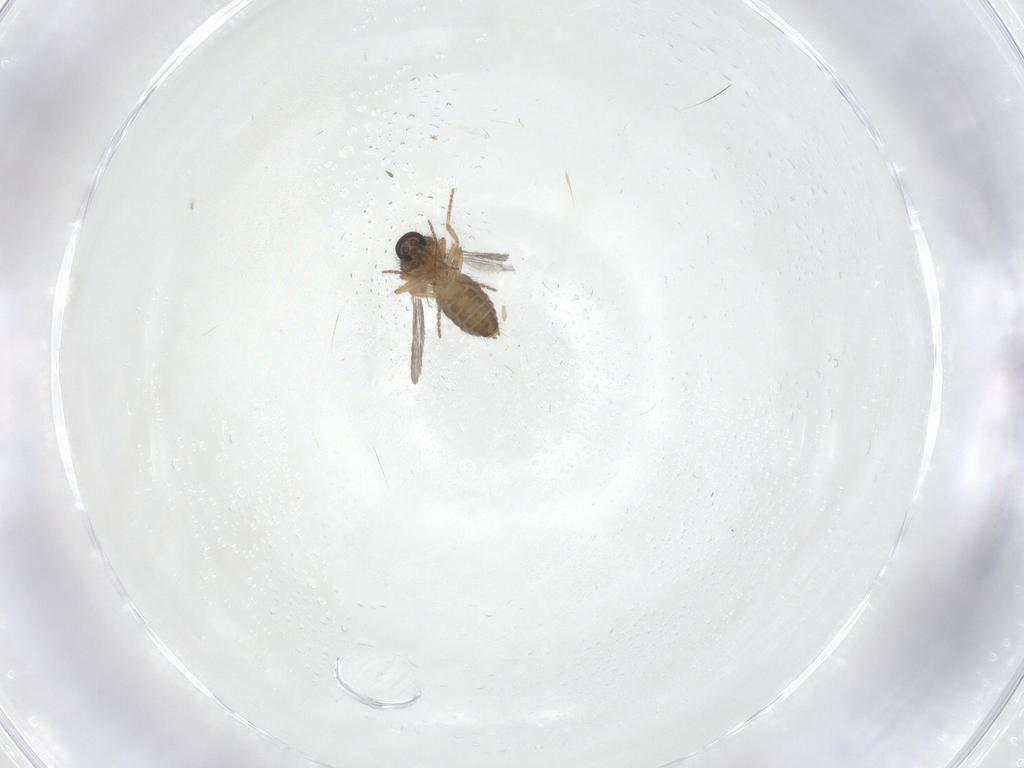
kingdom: Animalia
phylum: Arthropoda
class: Insecta
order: Diptera
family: Ceratopogonidae
